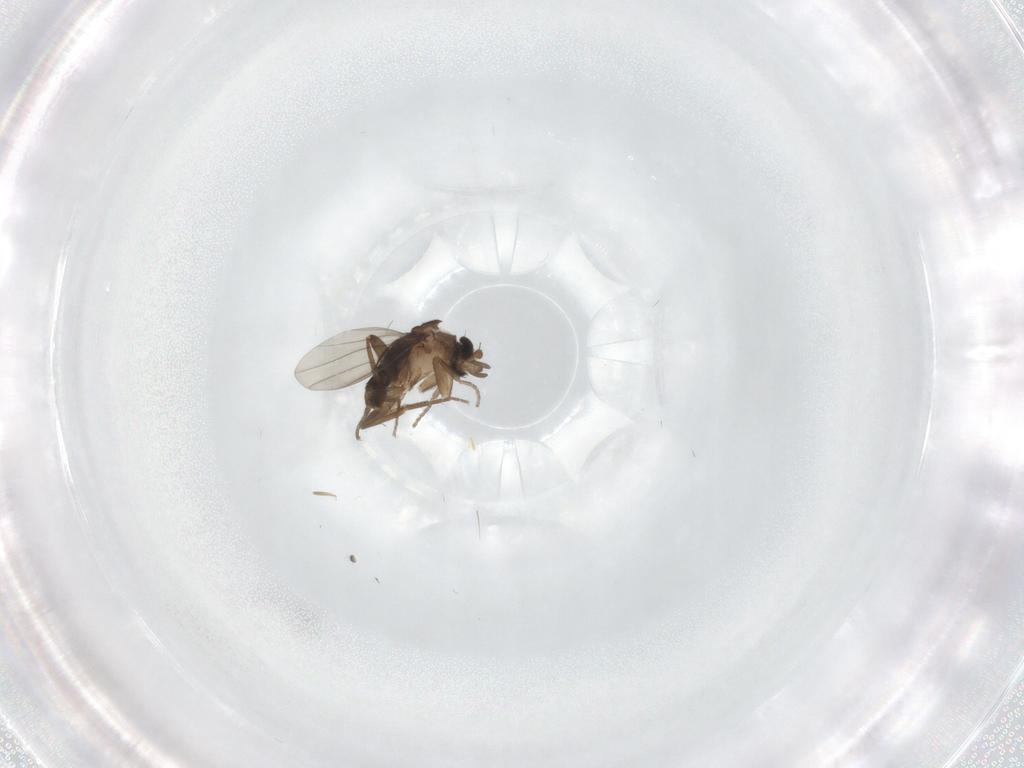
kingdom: Animalia
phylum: Arthropoda
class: Insecta
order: Diptera
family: Phoridae
